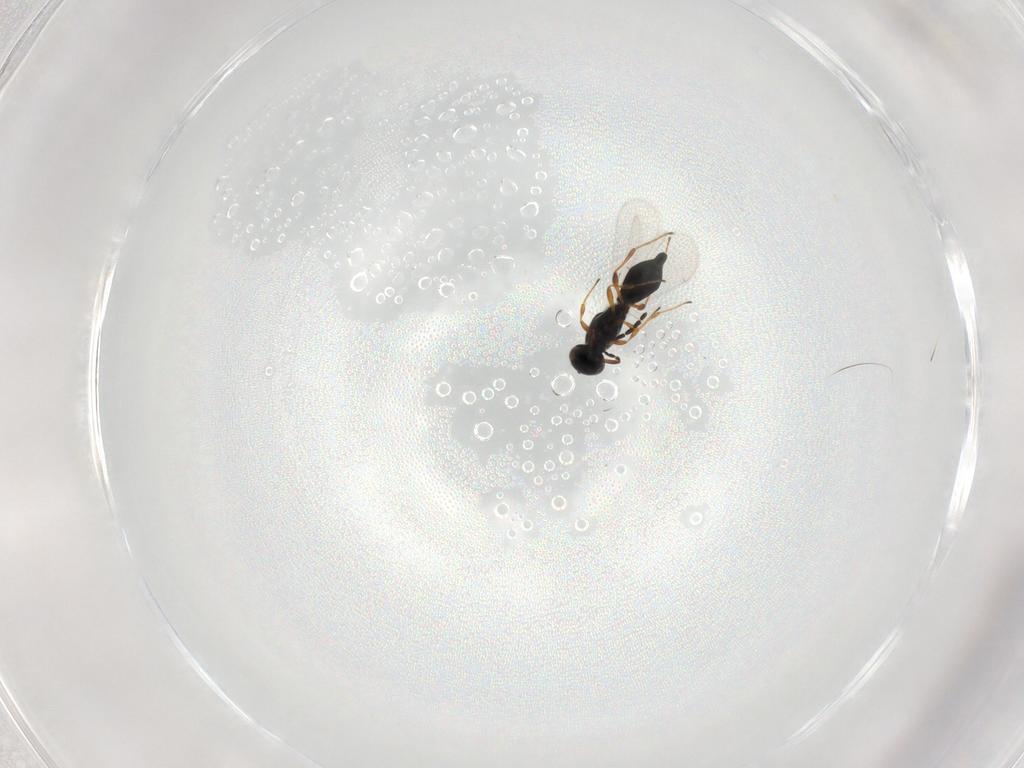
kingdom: Animalia
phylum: Arthropoda
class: Insecta
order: Hymenoptera
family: Platygastridae
